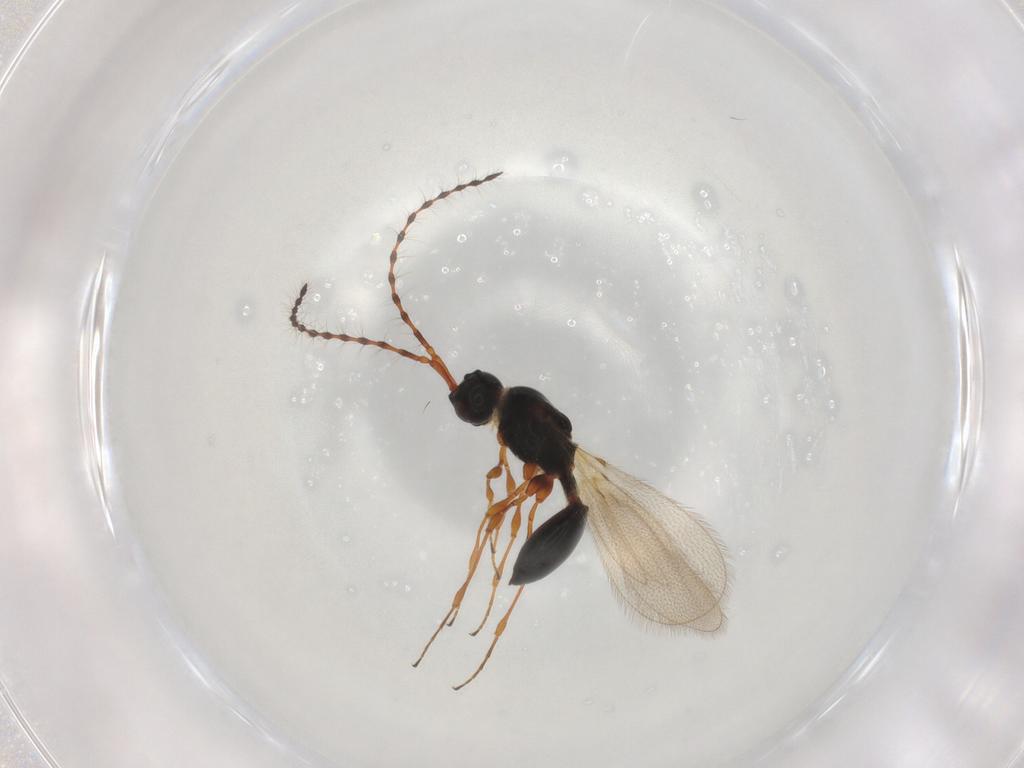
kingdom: Animalia
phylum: Arthropoda
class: Insecta
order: Hymenoptera
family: Diapriidae
